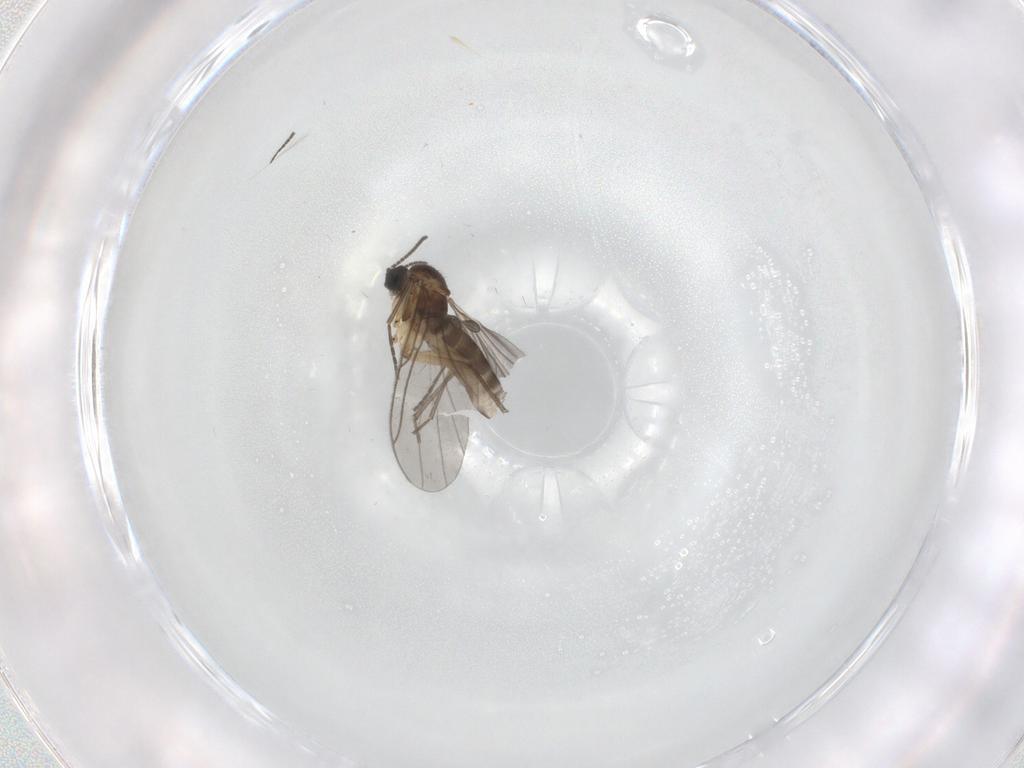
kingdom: Animalia
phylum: Arthropoda
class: Insecta
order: Diptera
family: Sciaridae
